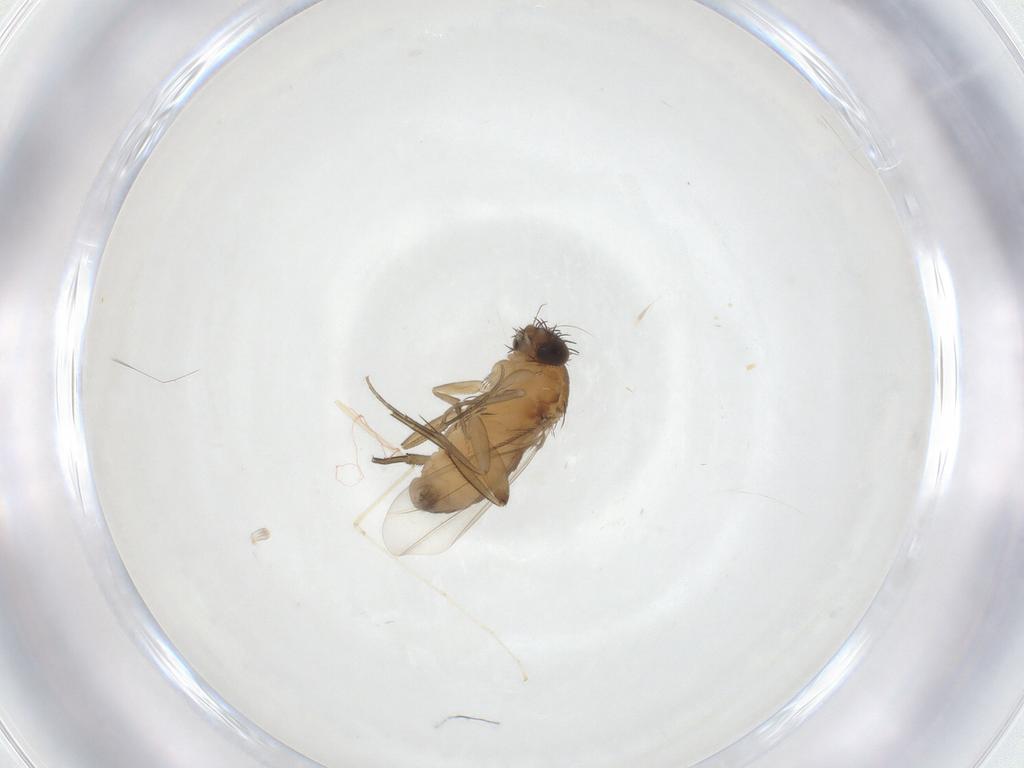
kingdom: Animalia
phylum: Arthropoda
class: Insecta
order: Diptera
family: Phoridae
